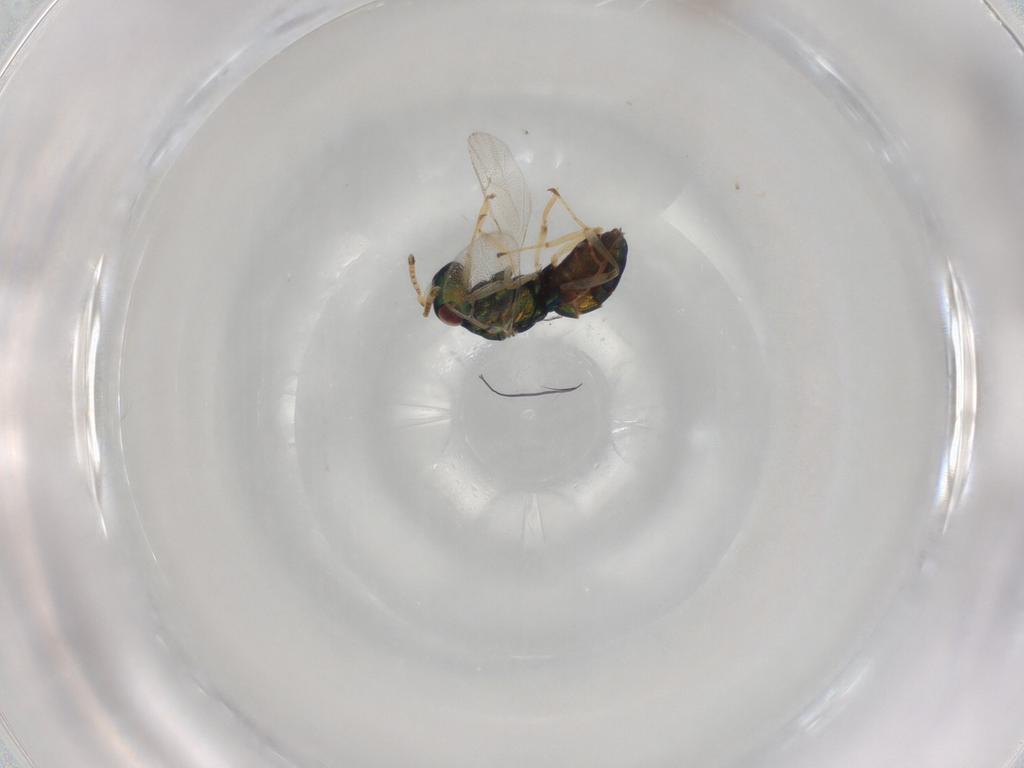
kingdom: Animalia
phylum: Arthropoda
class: Insecta
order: Hymenoptera
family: Pteromalidae
